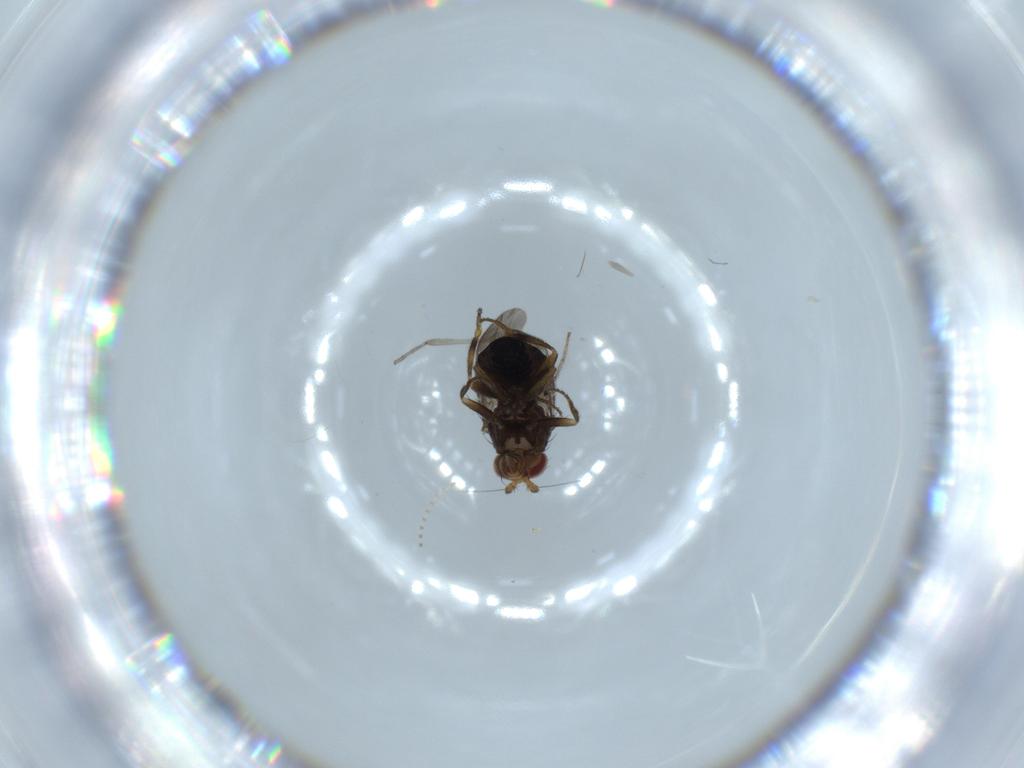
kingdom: Animalia
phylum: Arthropoda
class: Insecta
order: Diptera
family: Sphaeroceridae
